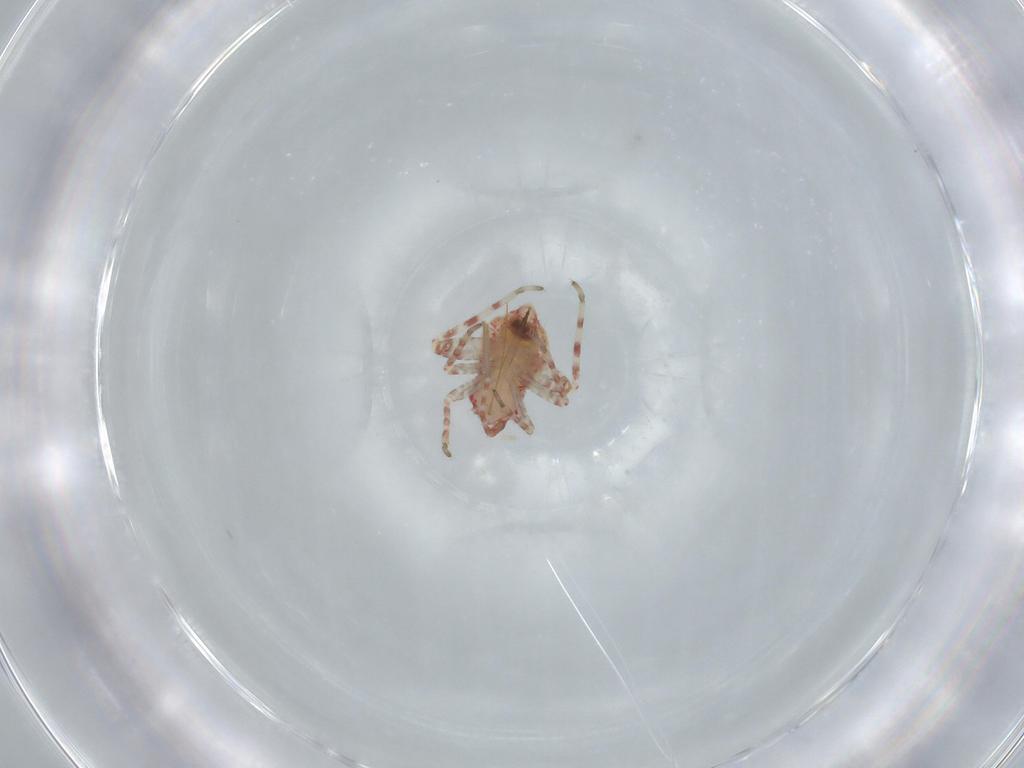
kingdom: Animalia
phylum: Arthropoda
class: Insecta
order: Hemiptera
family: Miridae
